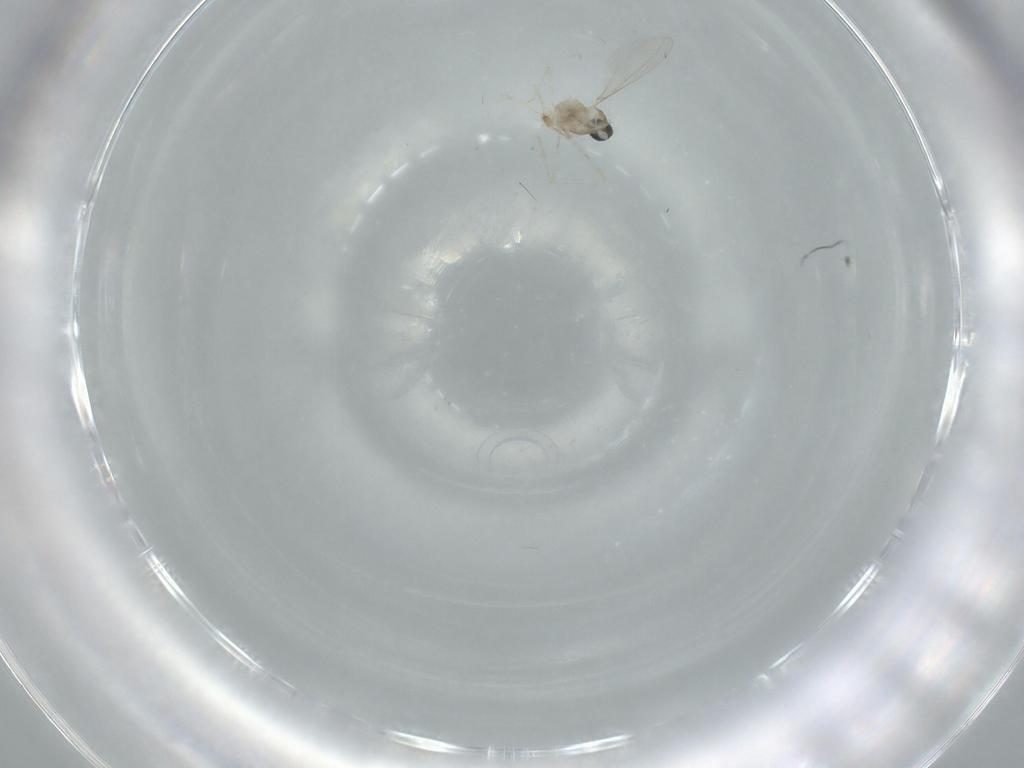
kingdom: Animalia
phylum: Arthropoda
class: Insecta
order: Diptera
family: Cecidomyiidae
